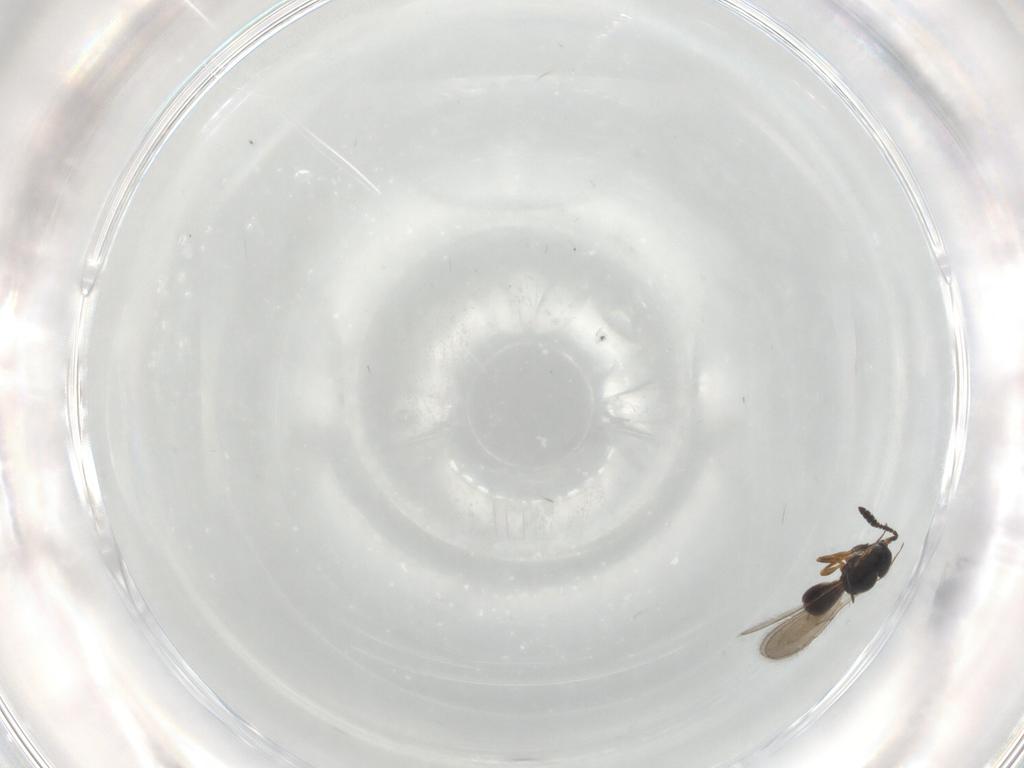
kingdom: Animalia
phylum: Arthropoda
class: Insecta
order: Hymenoptera
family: Scelionidae
